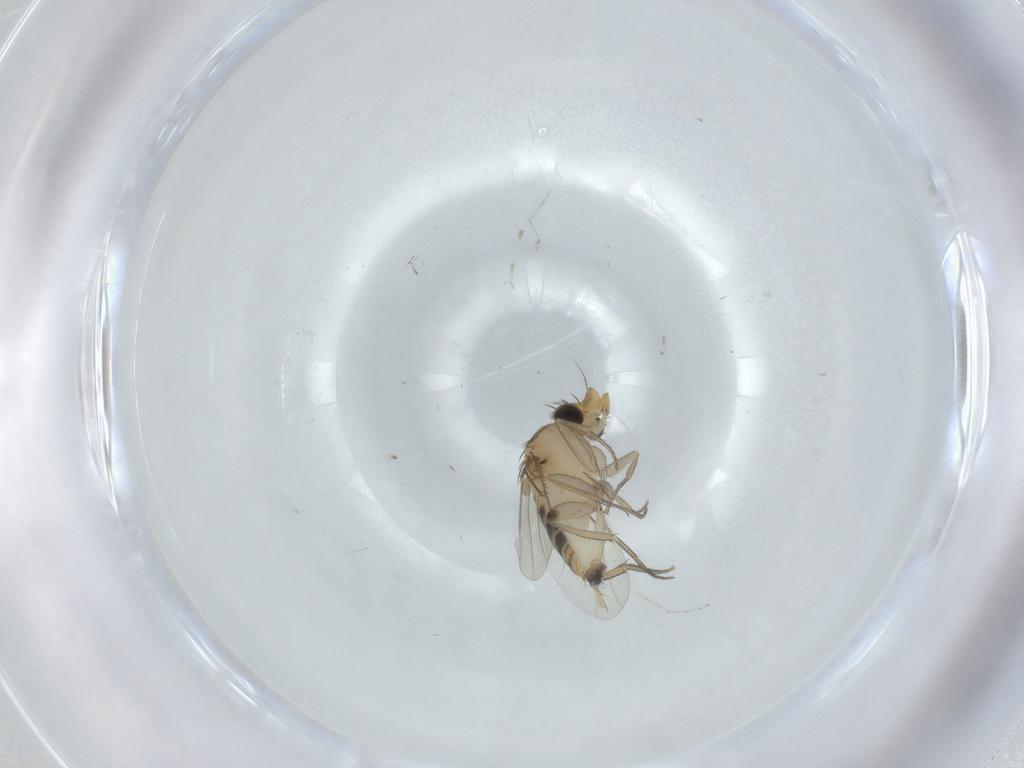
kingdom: Animalia
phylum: Arthropoda
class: Insecta
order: Diptera
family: Phoridae
